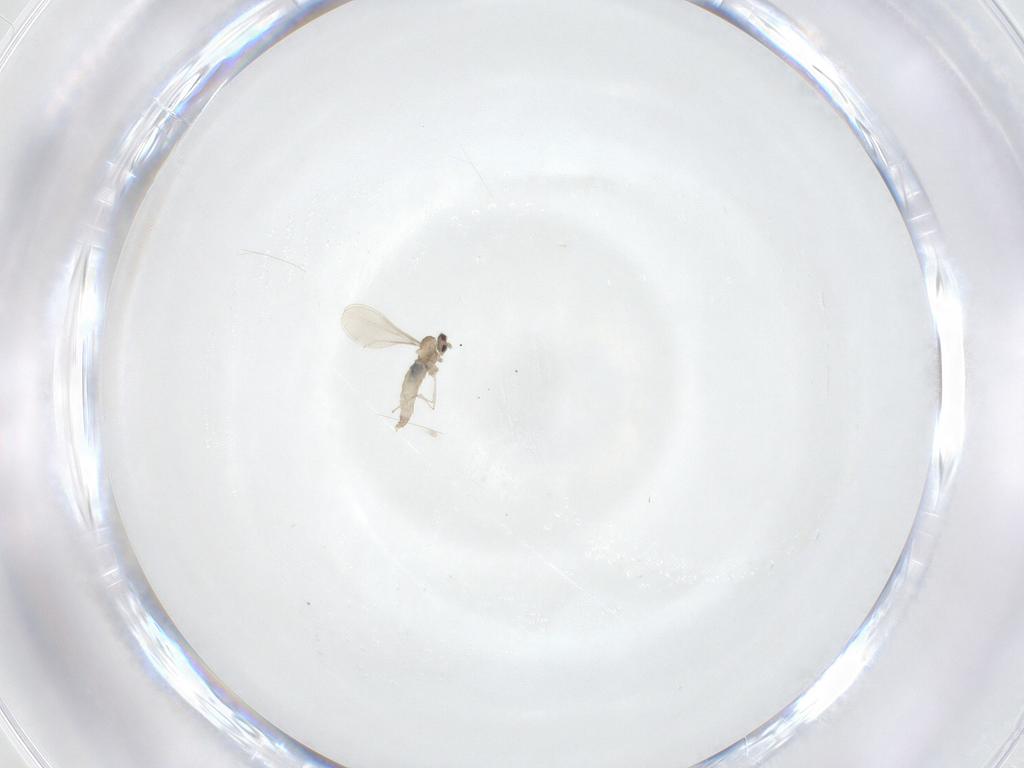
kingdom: Animalia
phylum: Arthropoda
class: Insecta
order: Diptera
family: Cecidomyiidae
